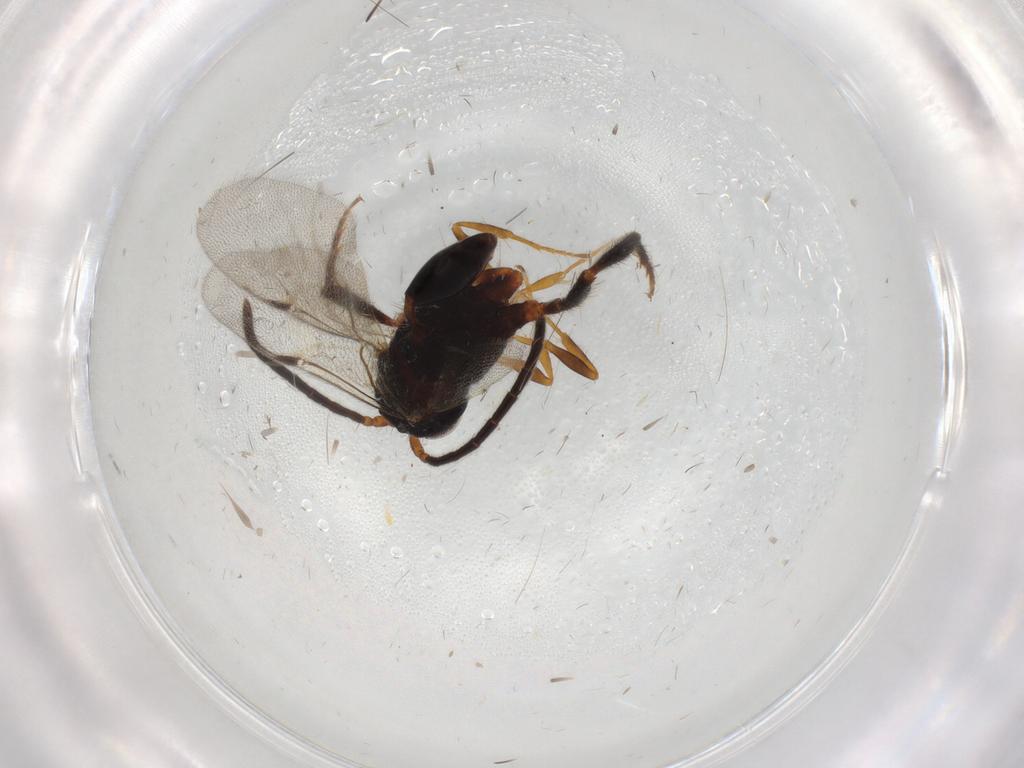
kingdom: Animalia
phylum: Arthropoda
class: Insecta
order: Hymenoptera
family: Evaniidae
